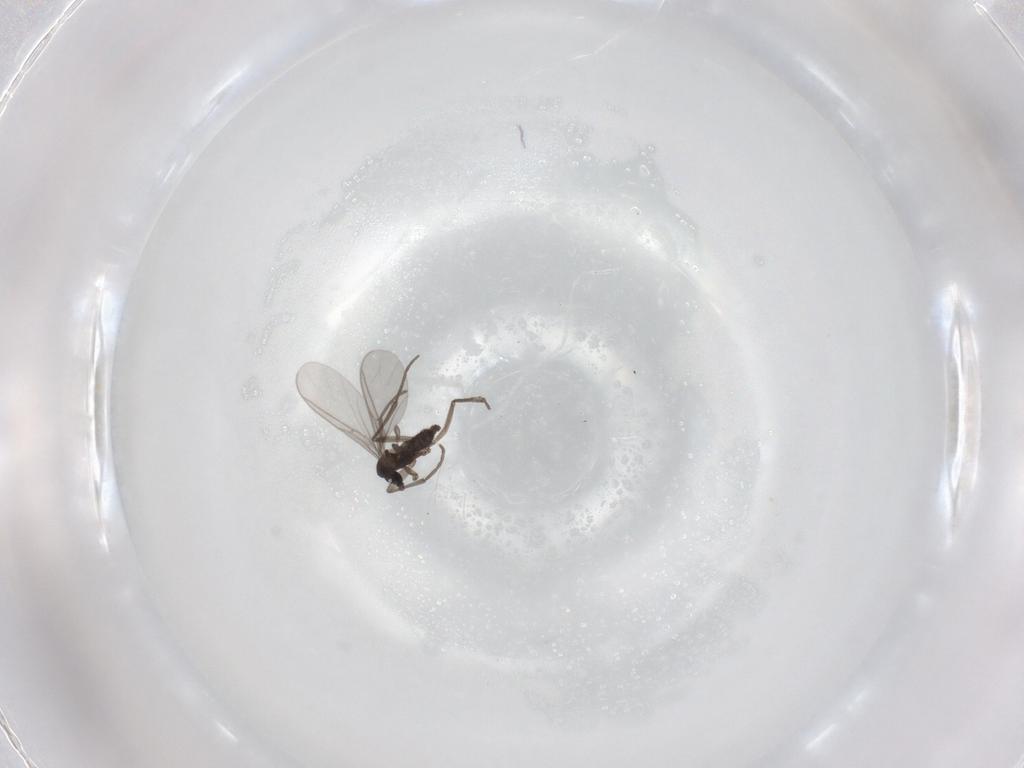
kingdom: Animalia
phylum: Arthropoda
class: Insecta
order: Diptera
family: Sciaridae
